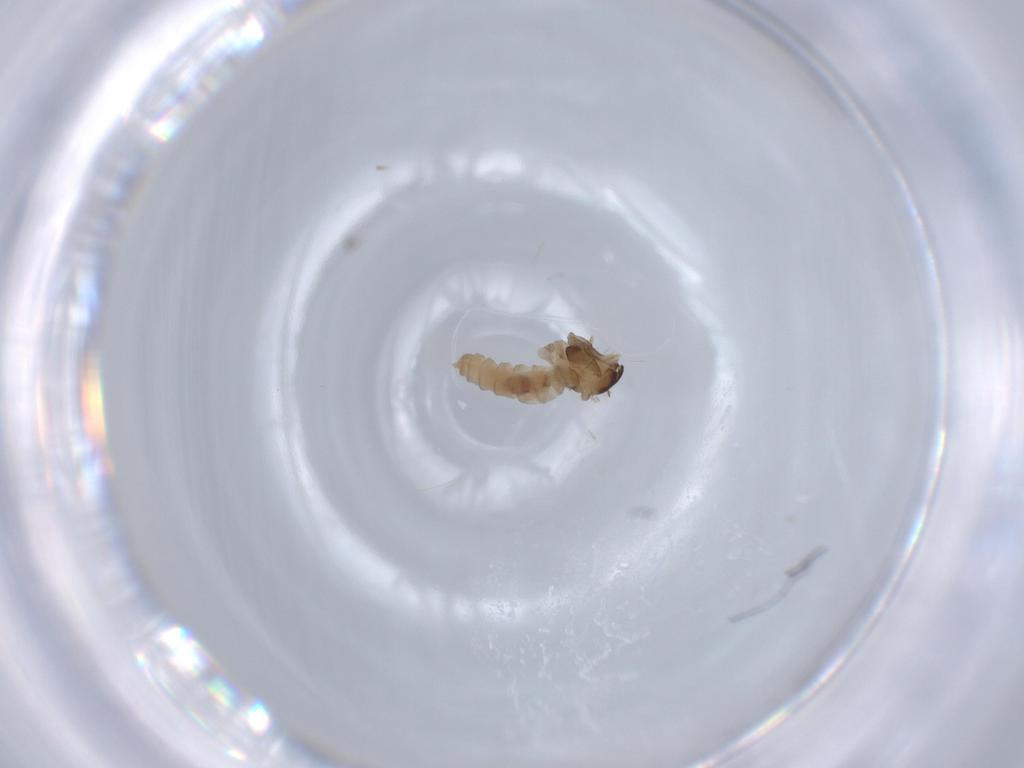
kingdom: Animalia
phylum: Arthropoda
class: Insecta
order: Diptera
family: Cecidomyiidae
